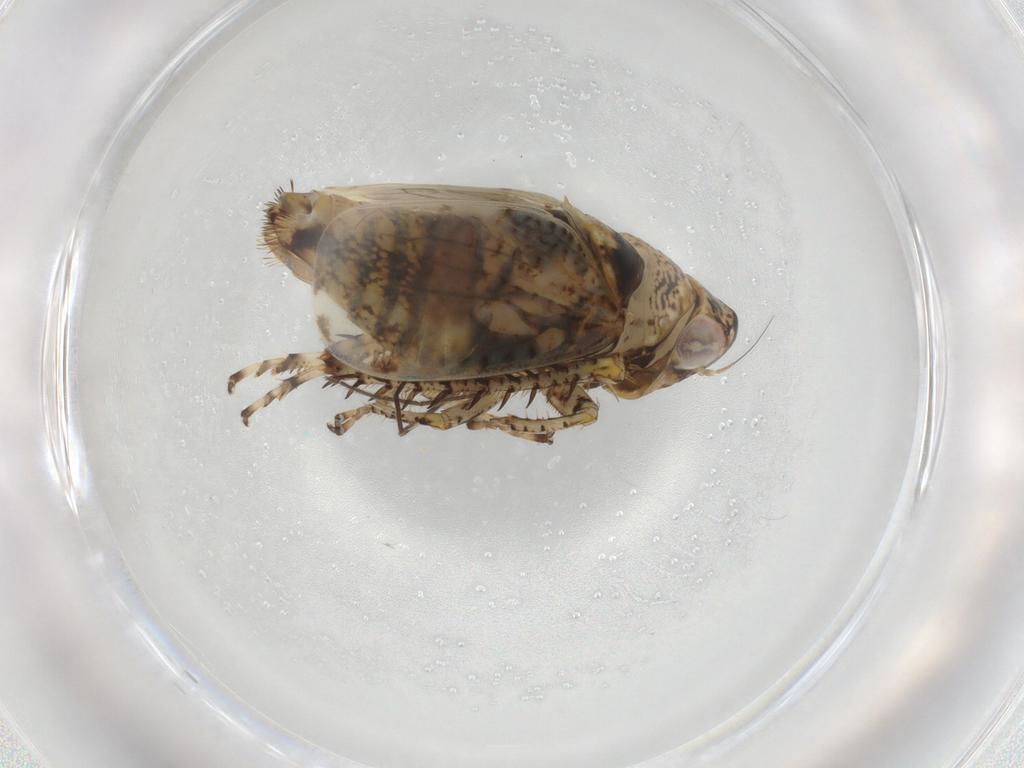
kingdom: Animalia
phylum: Arthropoda
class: Insecta
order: Hemiptera
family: Cicadellidae
